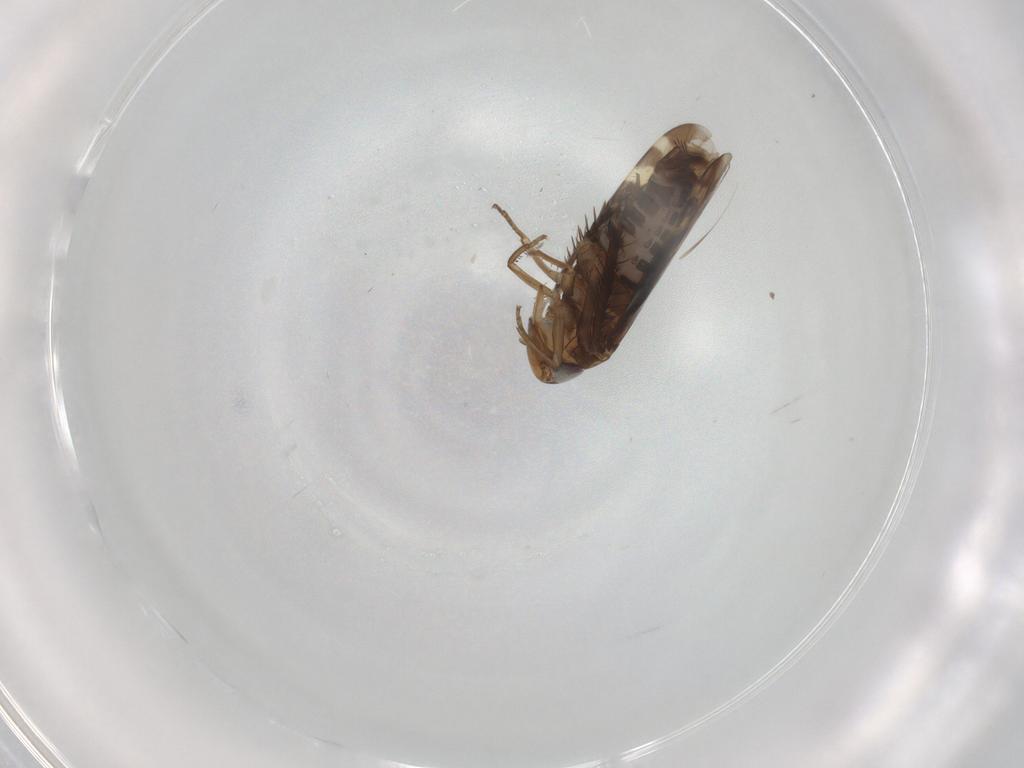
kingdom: Animalia
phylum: Arthropoda
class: Insecta
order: Hemiptera
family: Cicadellidae
